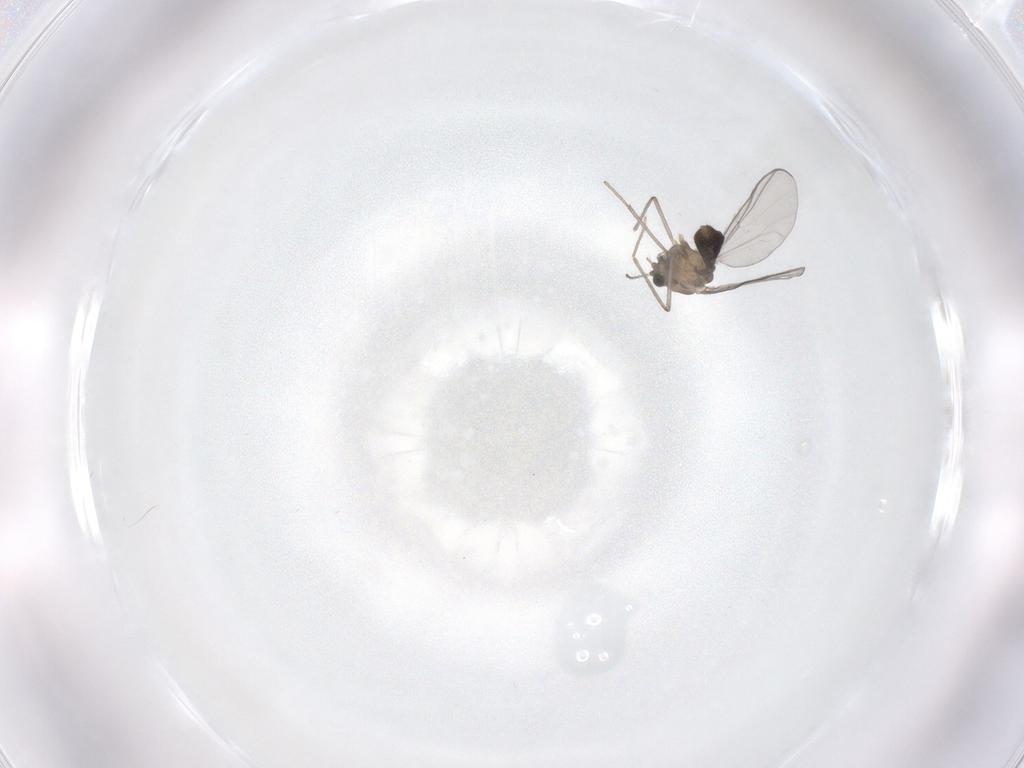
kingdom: Animalia
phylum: Arthropoda
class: Insecta
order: Diptera
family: Chironomidae
